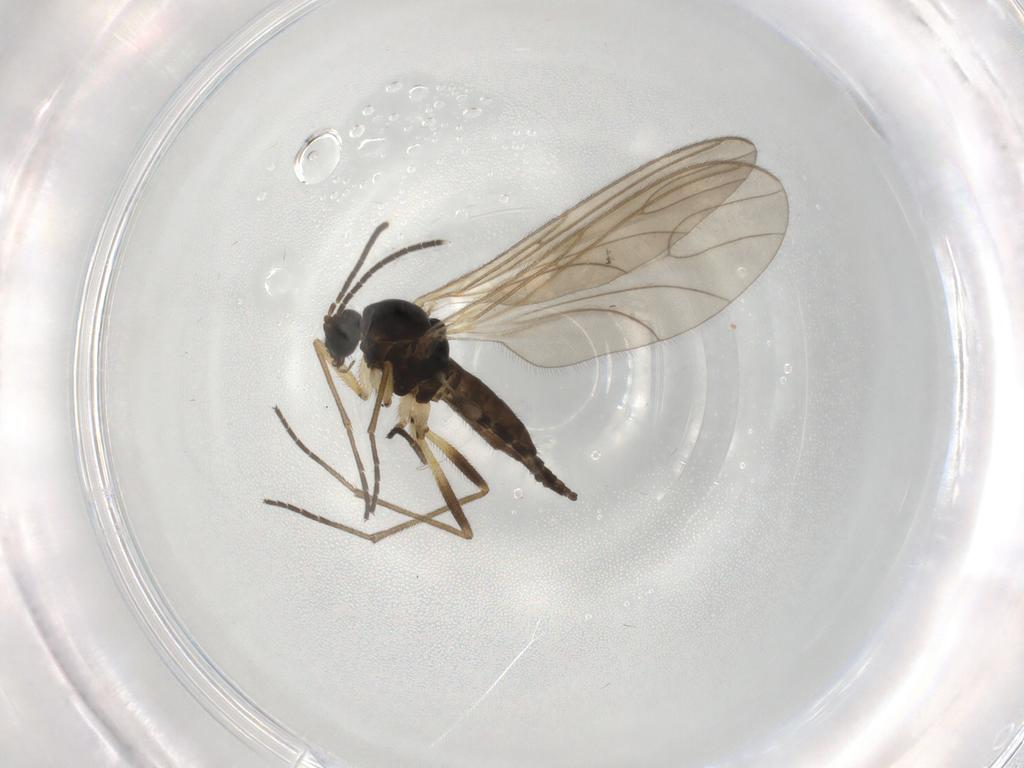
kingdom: Animalia
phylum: Arthropoda
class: Insecta
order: Diptera
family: Sciaridae
